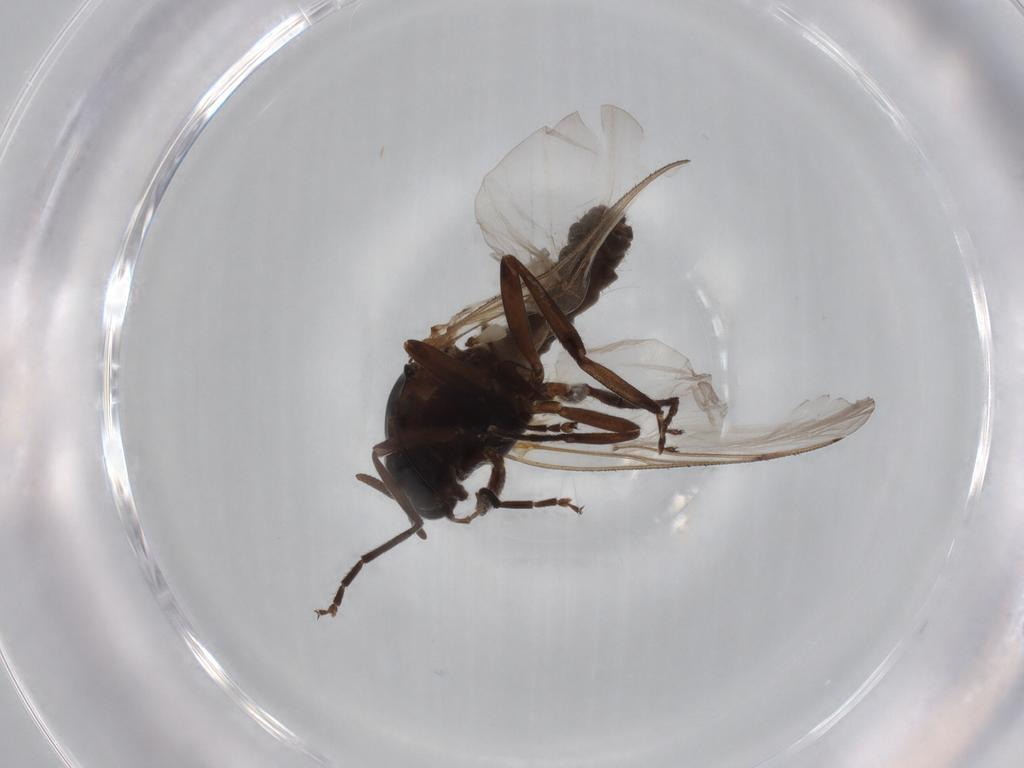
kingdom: Animalia
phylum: Arthropoda
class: Insecta
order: Diptera
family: Simuliidae
